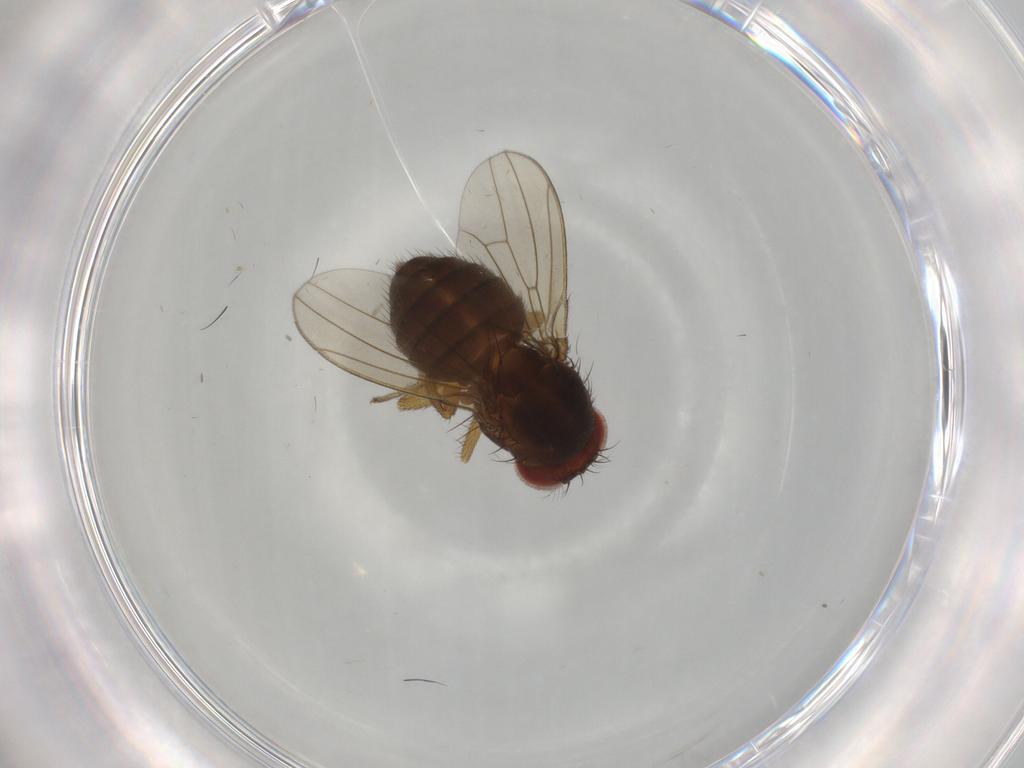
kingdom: Animalia
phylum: Arthropoda
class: Insecta
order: Diptera
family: Drosophilidae
